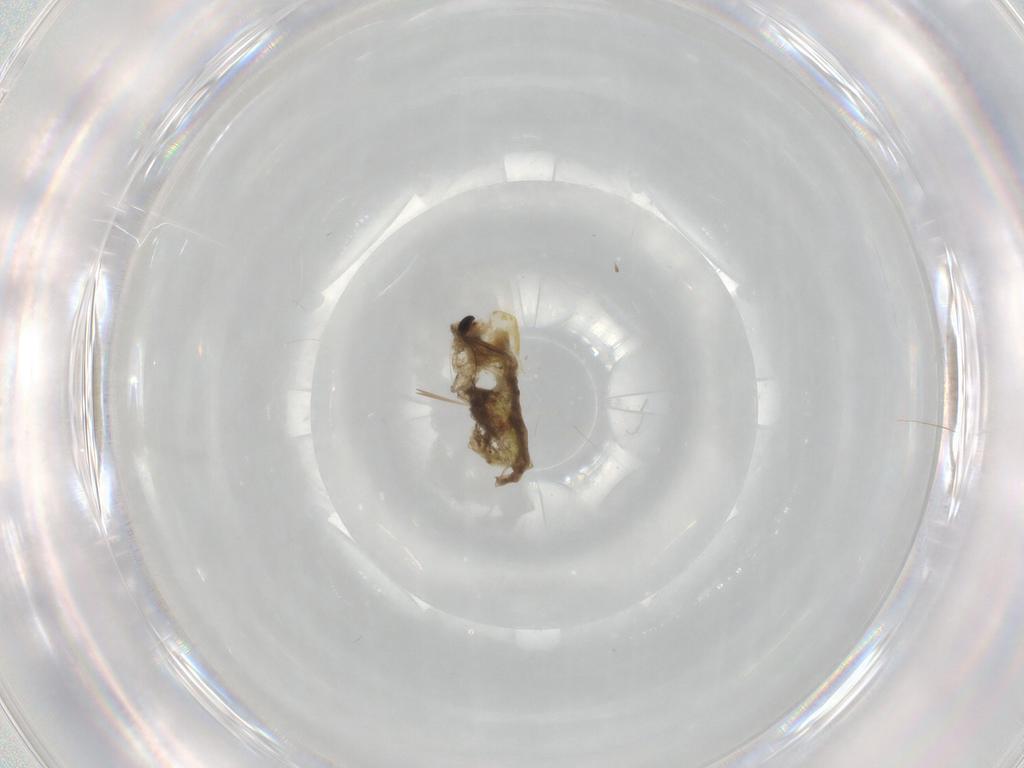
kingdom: Animalia
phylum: Arthropoda
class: Insecta
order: Diptera
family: Chironomidae
